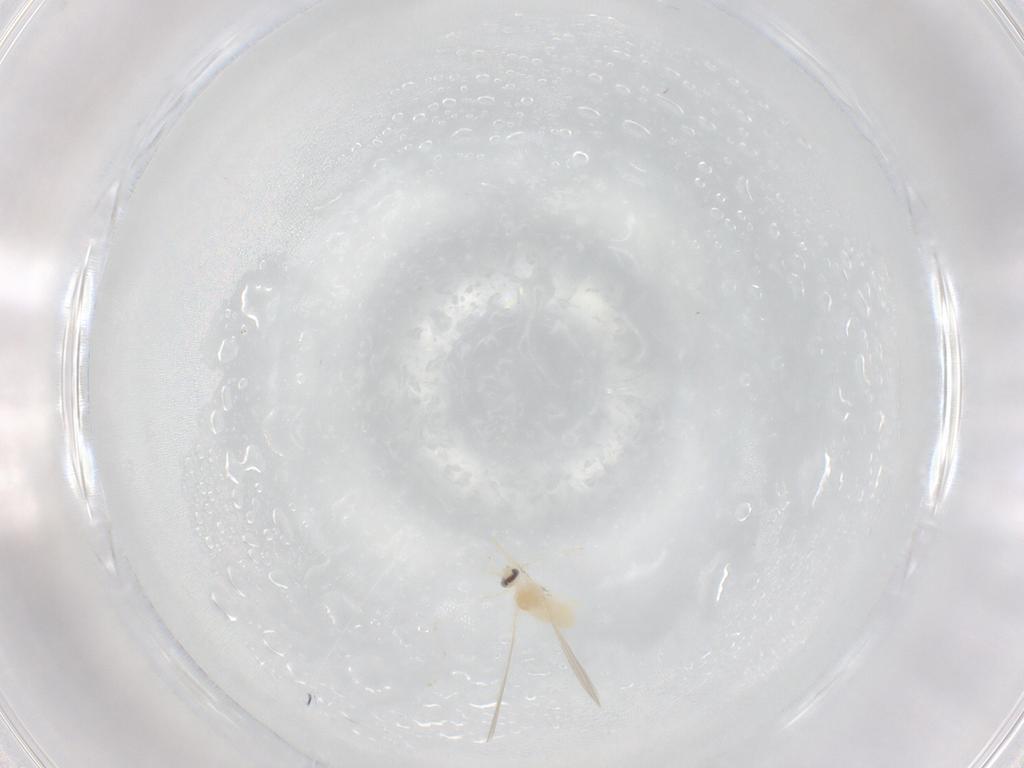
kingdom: Animalia
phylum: Arthropoda
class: Insecta
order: Diptera
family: Cecidomyiidae
